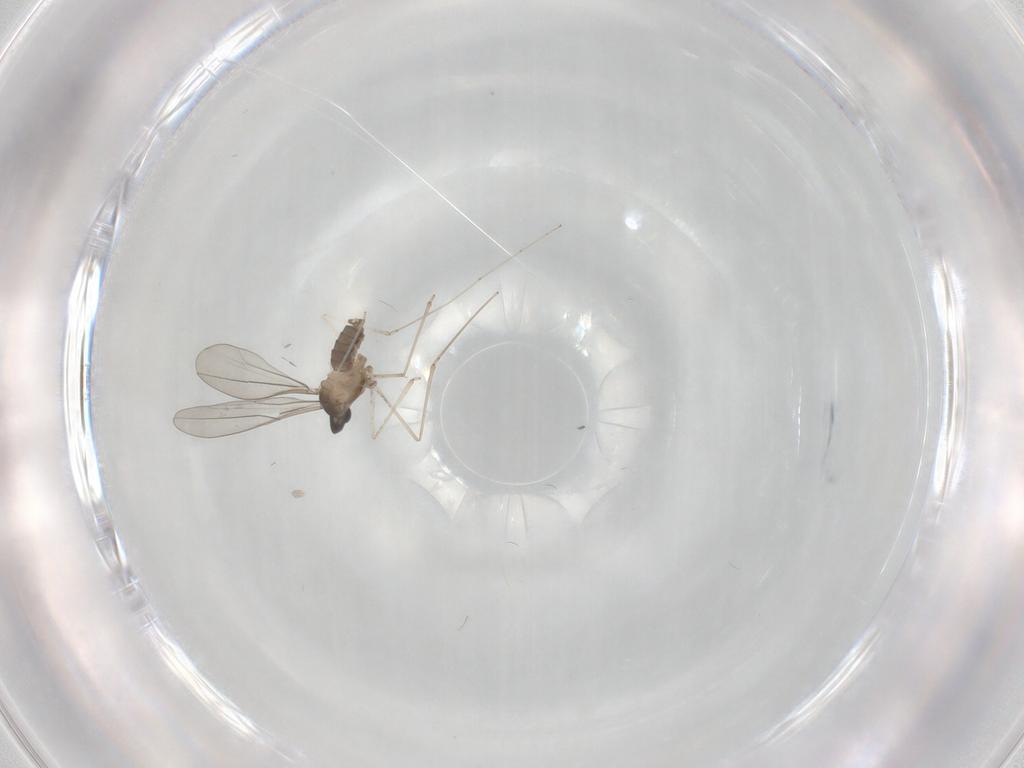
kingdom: Animalia
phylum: Arthropoda
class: Insecta
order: Diptera
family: Cecidomyiidae
